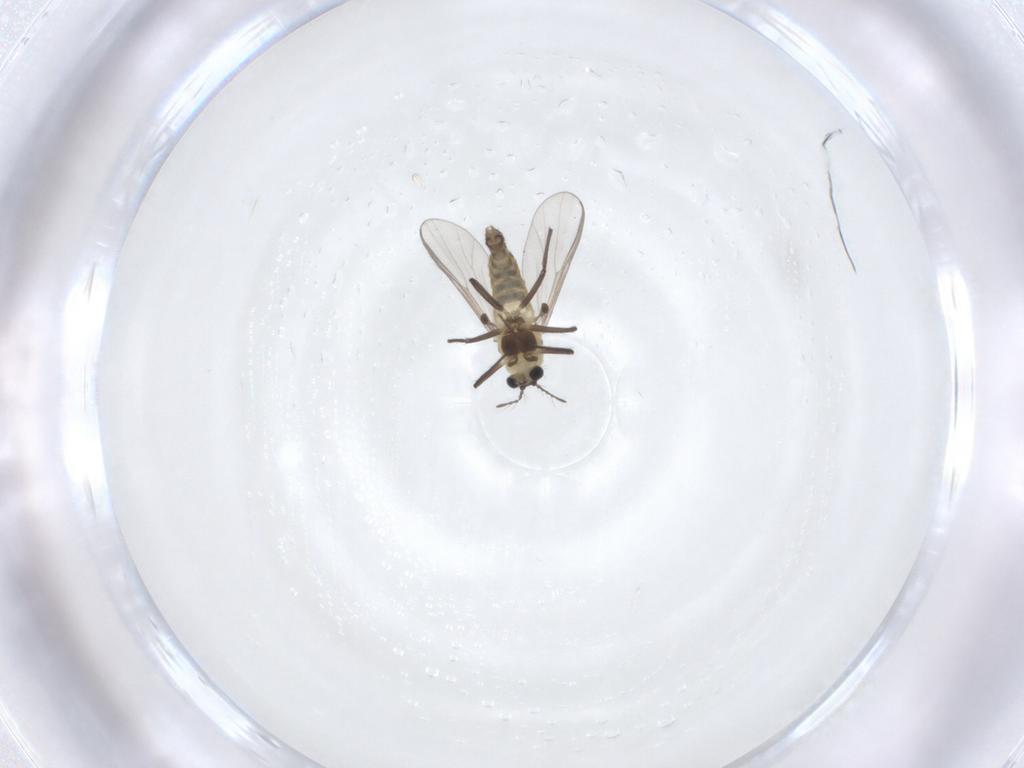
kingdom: Animalia
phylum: Arthropoda
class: Insecta
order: Diptera
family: Chironomidae
